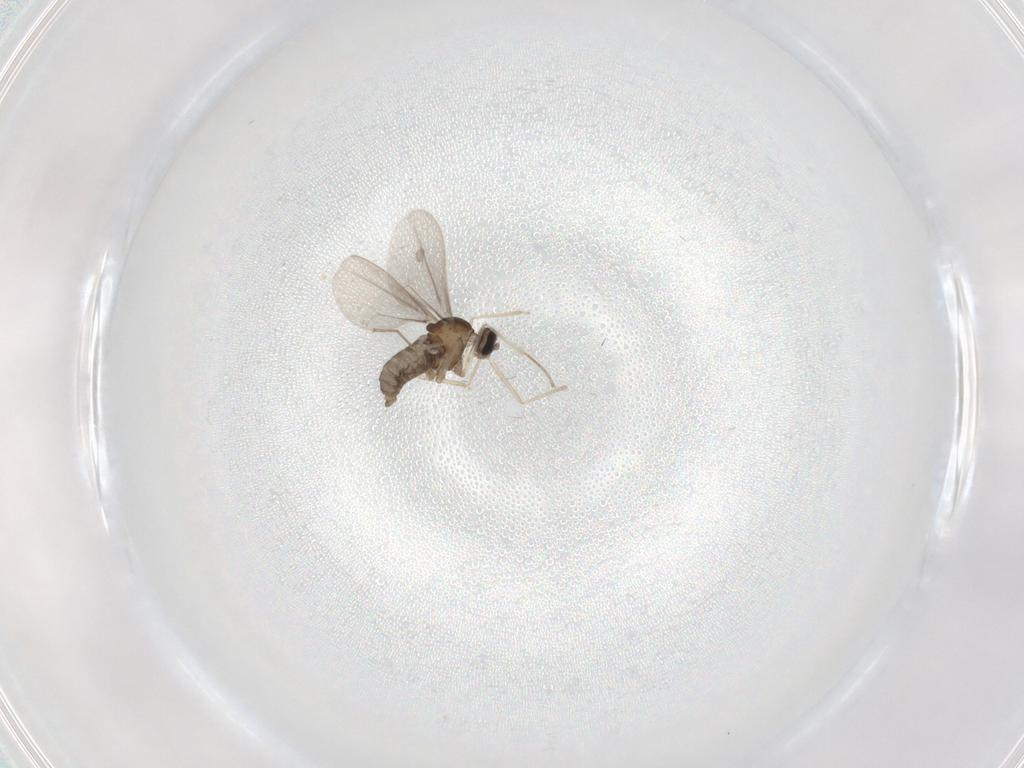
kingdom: Animalia
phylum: Arthropoda
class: Insecta
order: Diptera
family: Cecidomyiidae
